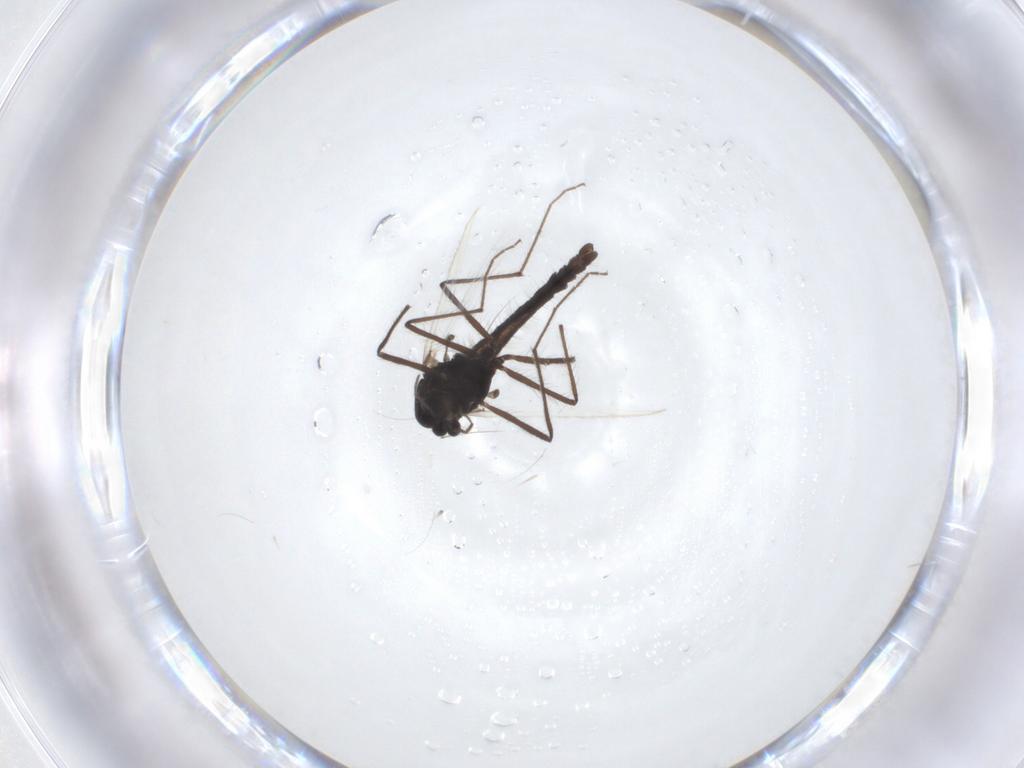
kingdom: Animalia
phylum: Arthropoda
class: Insecta
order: Diptera
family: Chironomidae
